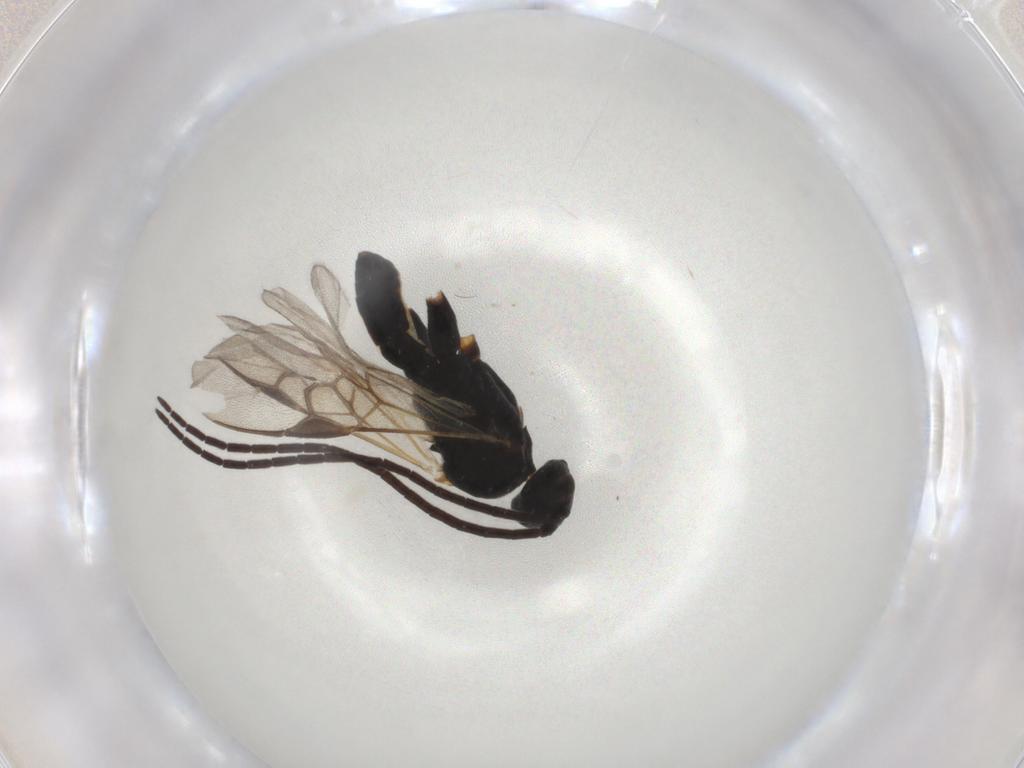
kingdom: Animalia
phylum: Arthropoda
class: Insecta
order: Hymenoptera
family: Braconidae
